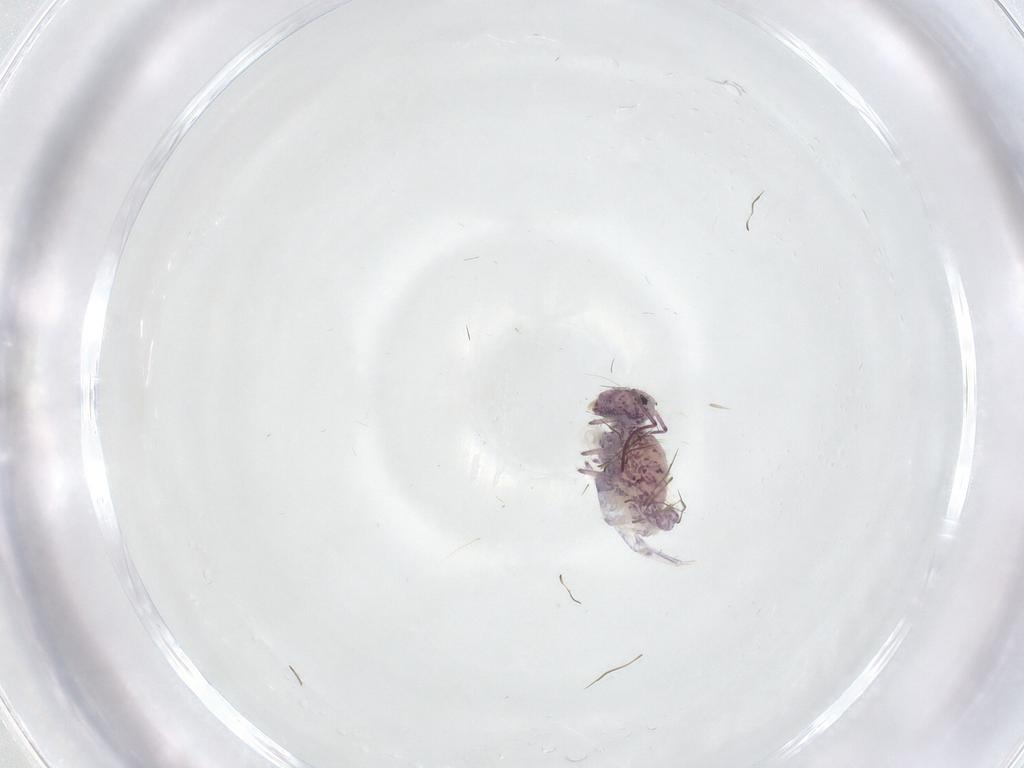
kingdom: Animalia
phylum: Arthropoda
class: Collembola
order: Symphypleona
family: Sminthuridae
